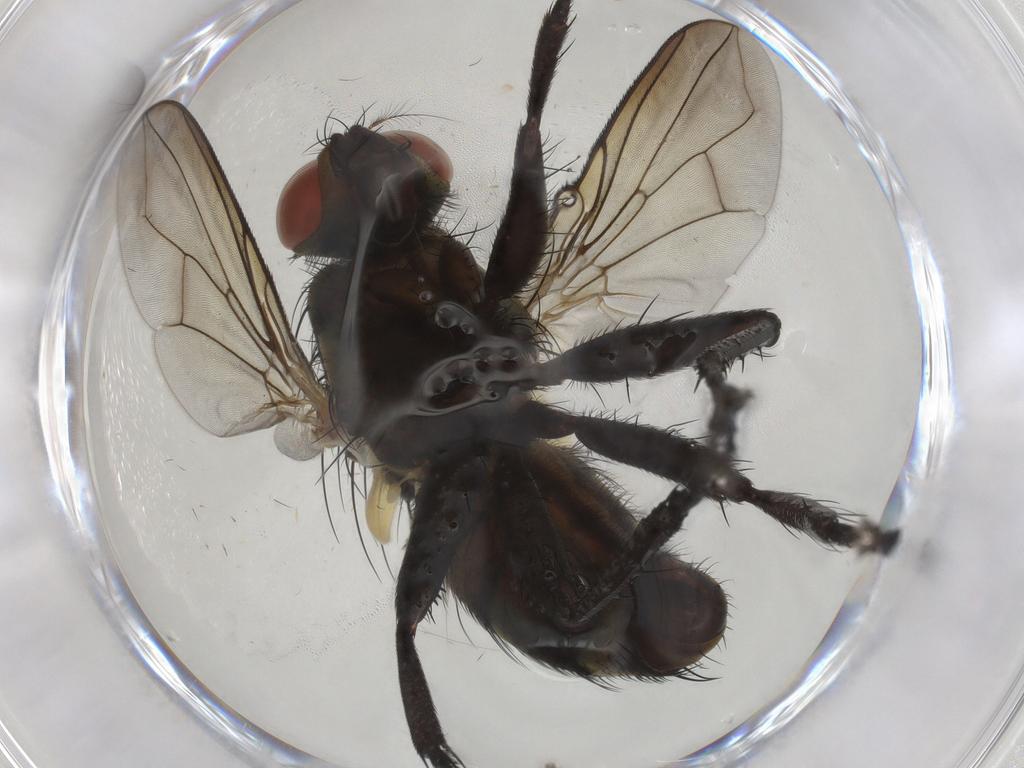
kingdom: Animalia
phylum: Arthropoda
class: Insecta
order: Diptera
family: Sarcophagidae
